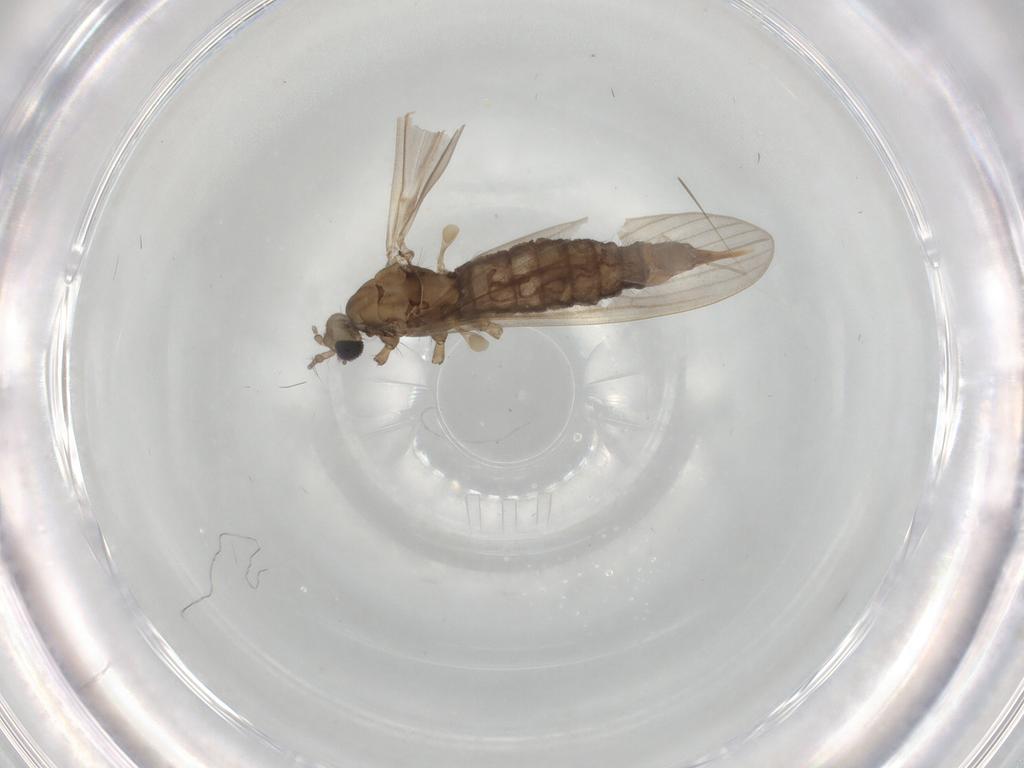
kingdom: Animalia
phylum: Arthropoda
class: Insecta
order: Diptera
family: Limoniidae
